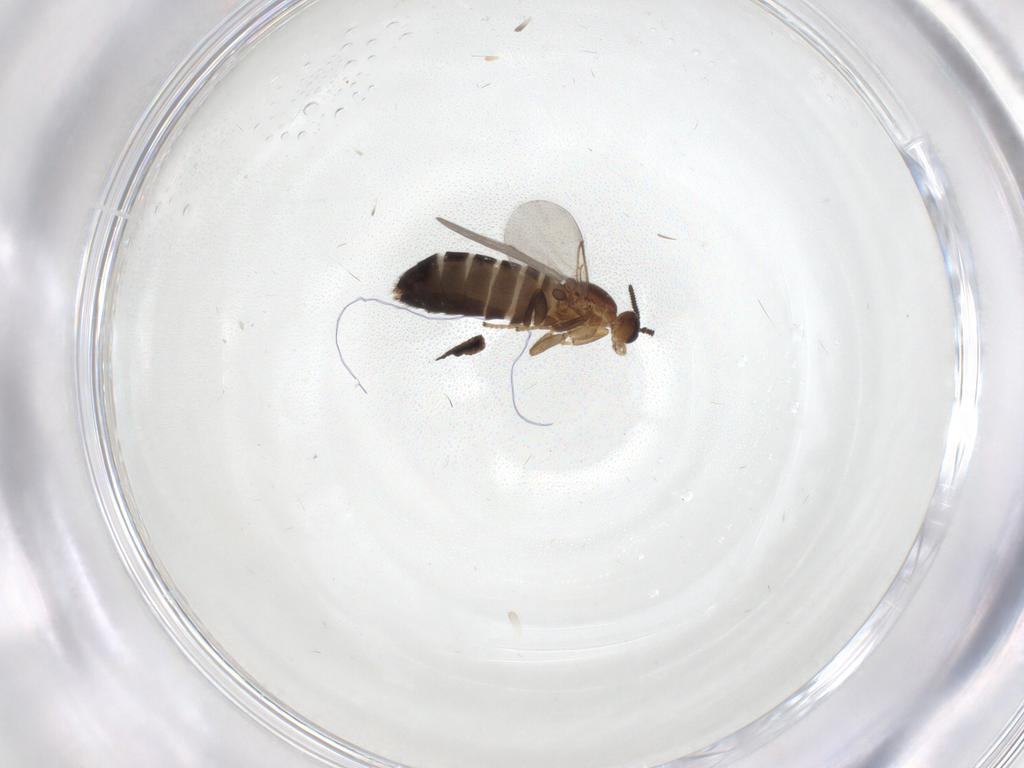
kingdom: Animalia
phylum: Arthropoda
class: Insecta
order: Diptera
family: Scatopsidae
